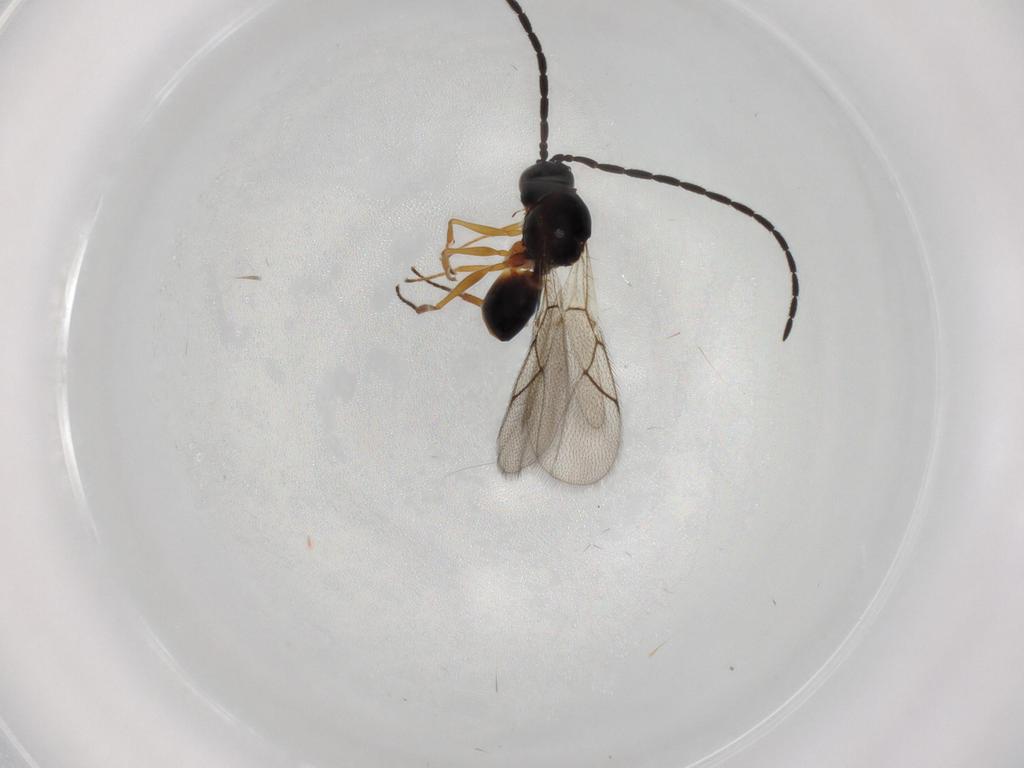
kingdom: Animalia
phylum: Arthropoda
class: Insecta
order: Hymenoptera
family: Figitidae
